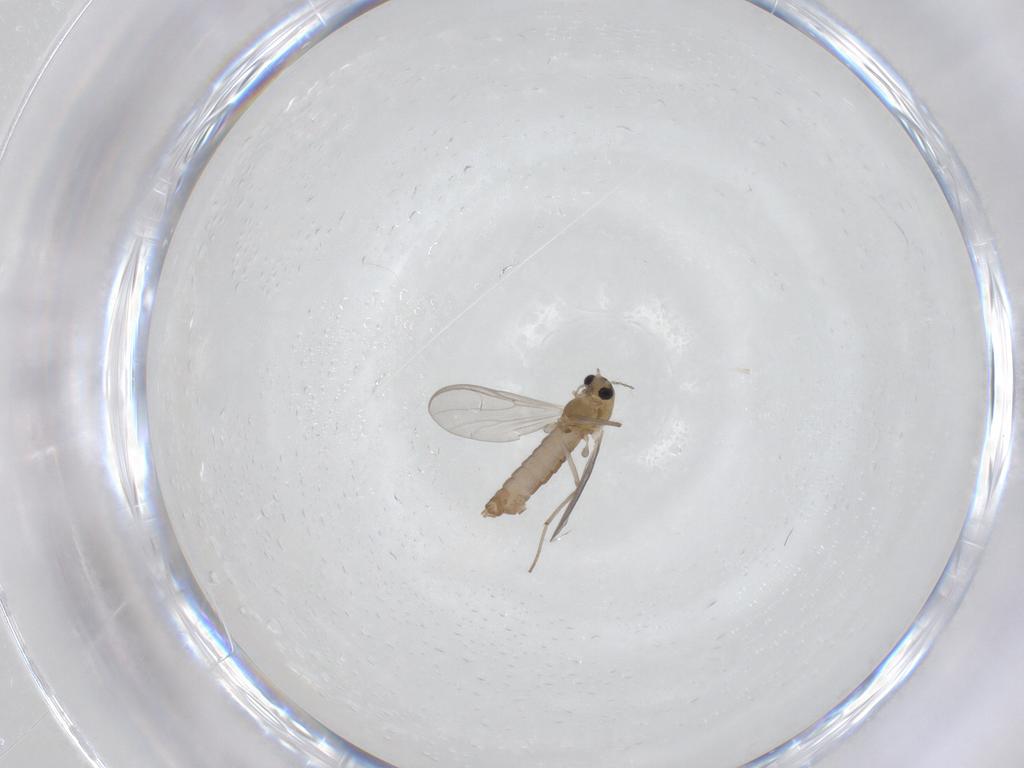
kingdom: Animalia
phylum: Arthropoda
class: Insecta
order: Diptera
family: Chironomidae
